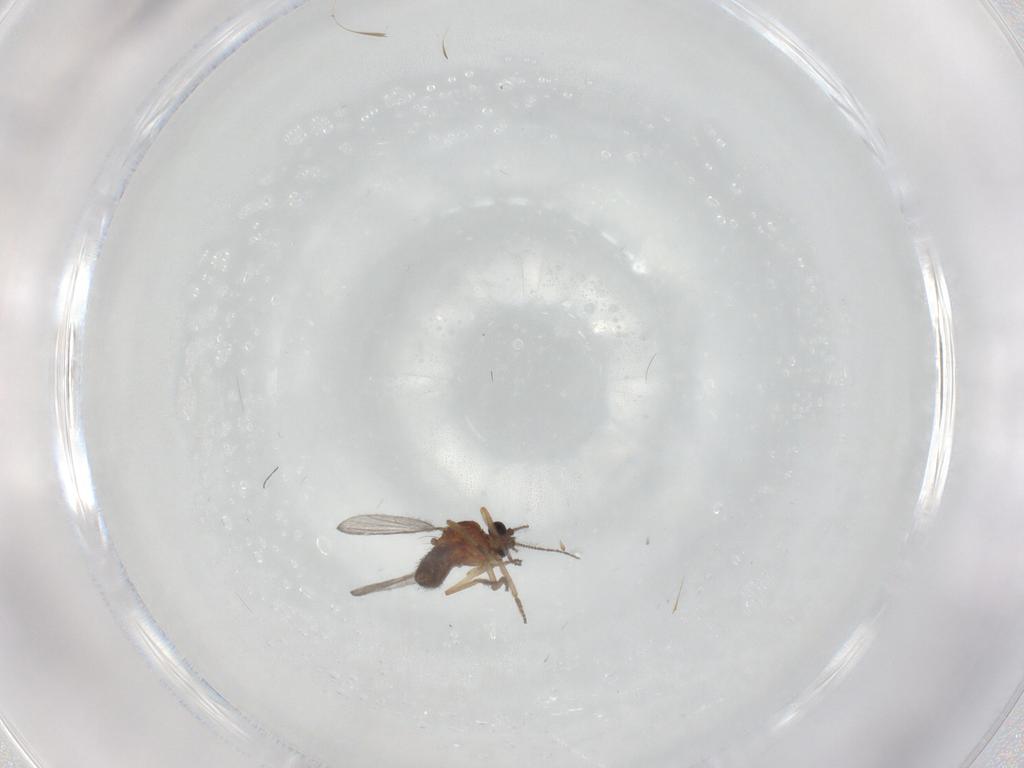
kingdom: Animalia
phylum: Arthropoda
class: Insecta
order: Diptera
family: Ceratopogonidae
